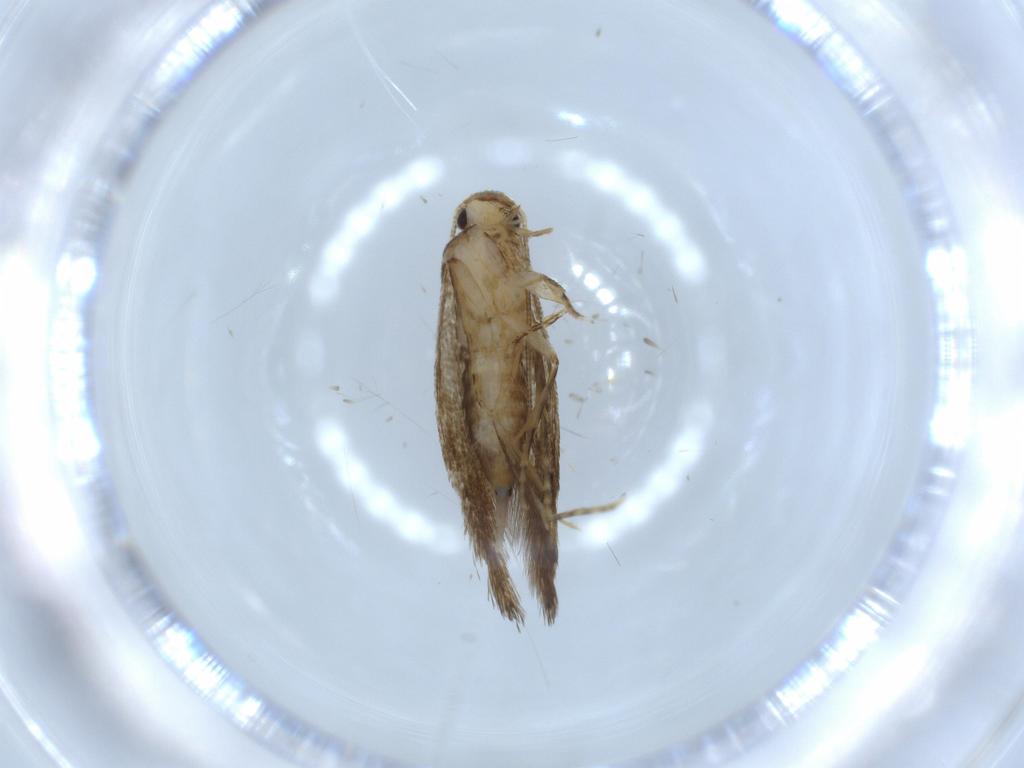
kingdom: Animalia
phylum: Arthropoda
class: Insecta
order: Lepidoptera
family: Tineidae
